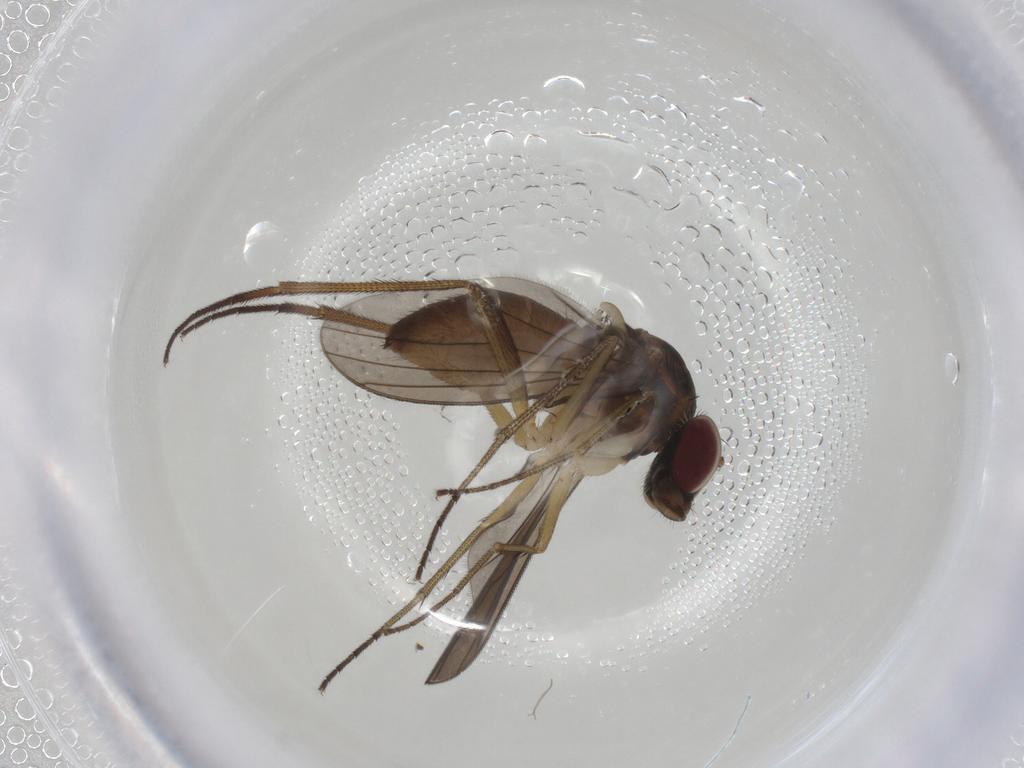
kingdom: Animalia
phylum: Arthropoda
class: Insecta
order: Diptera
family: Dolichopodidae
